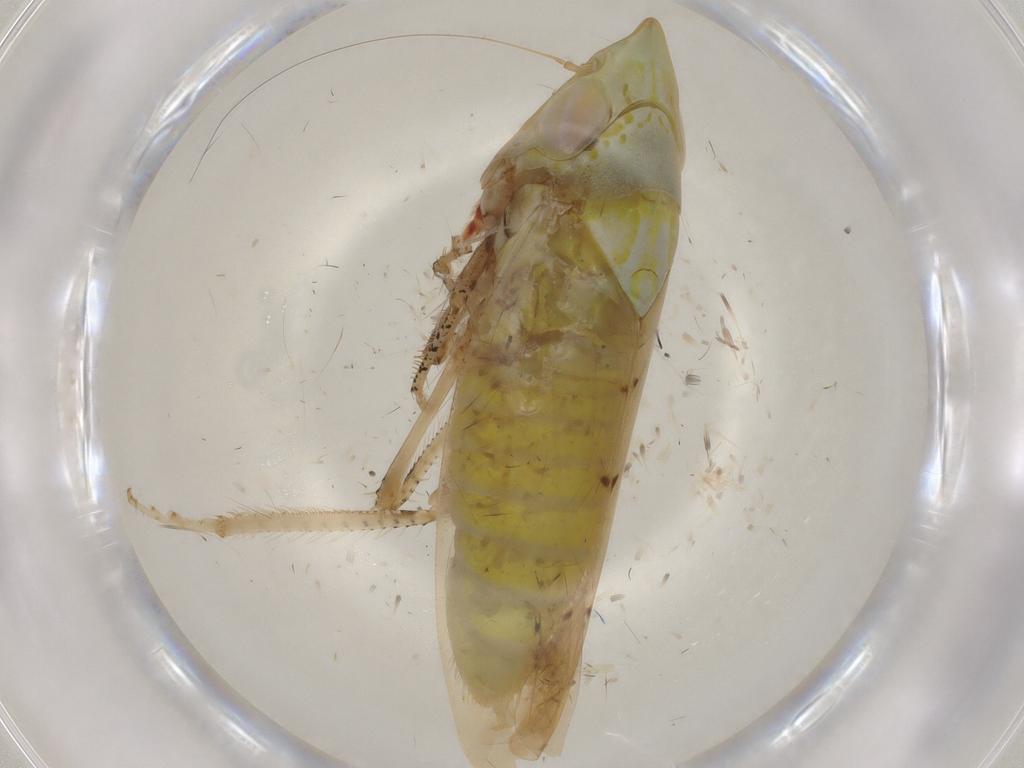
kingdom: Animalia
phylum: Arthropoda
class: Insecta
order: Hemiptera
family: Cicadellidae
